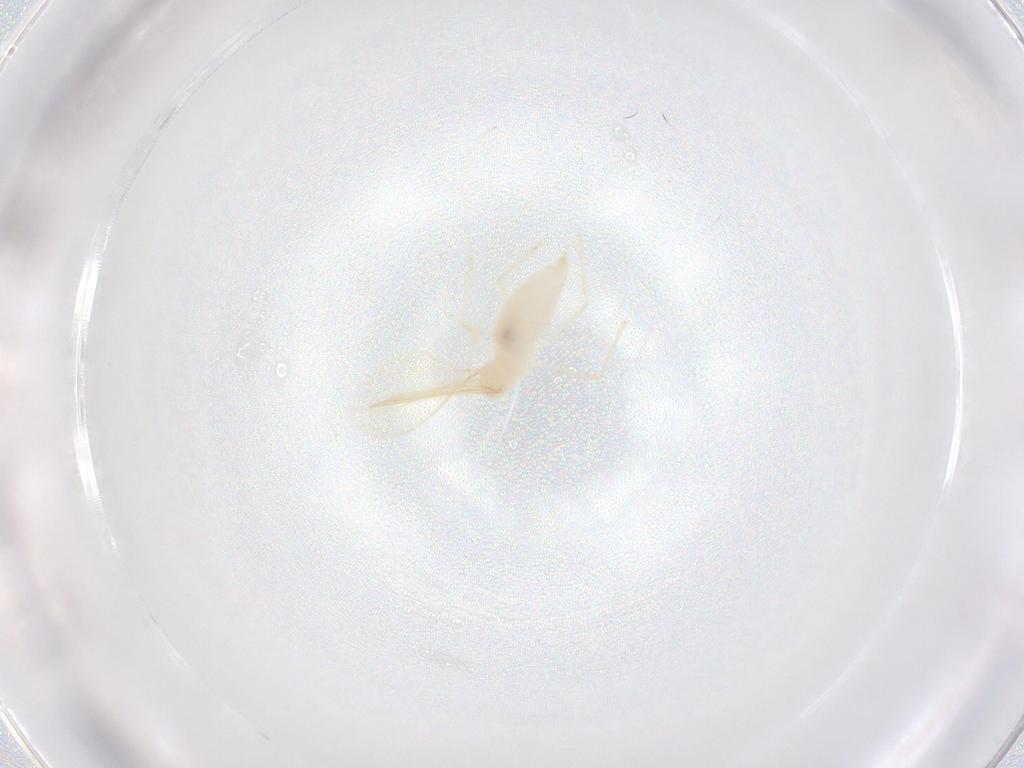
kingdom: Animalia
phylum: Arthropoda
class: Insecta
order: Diptera
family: Cecidomyiidae
